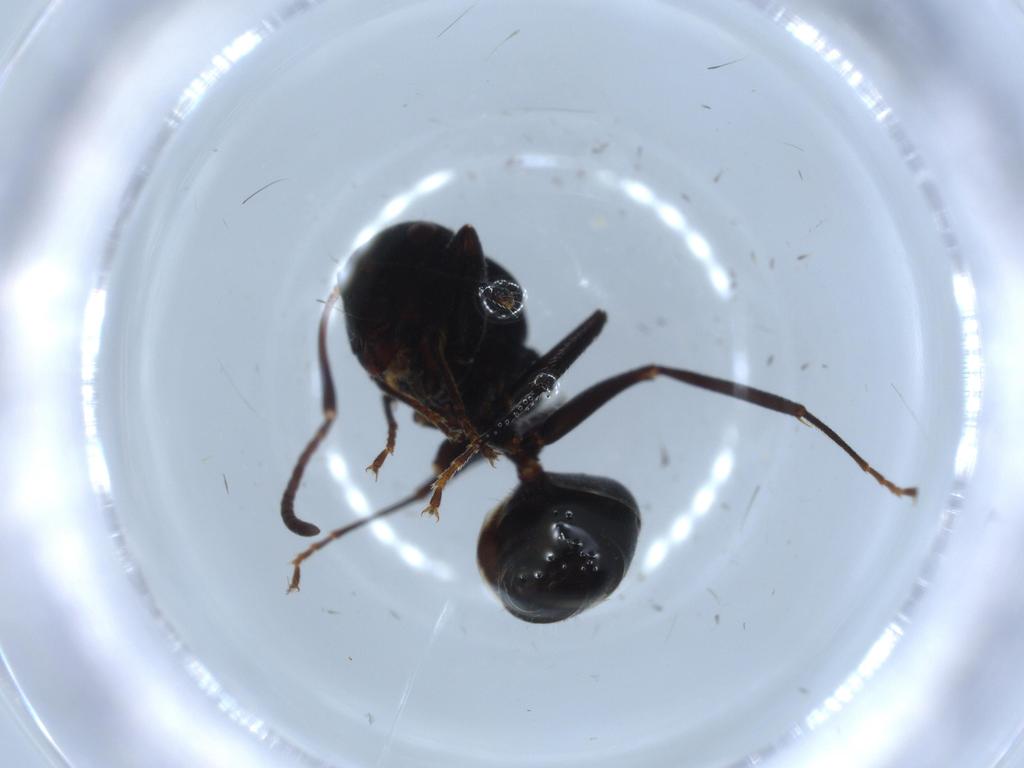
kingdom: Animalia
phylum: Arthropoda
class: Insecta
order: Hymenoptera
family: Formicidae
